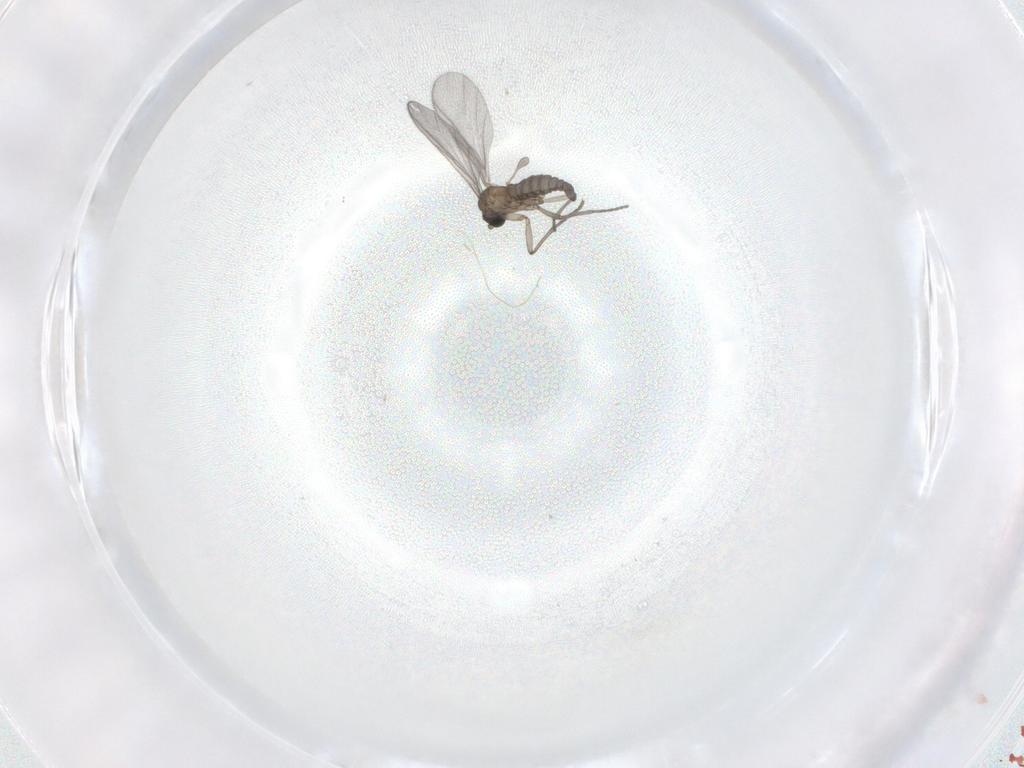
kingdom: Animalia
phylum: Arthropoda
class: Insecta
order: Diptera
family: Sciaridae
